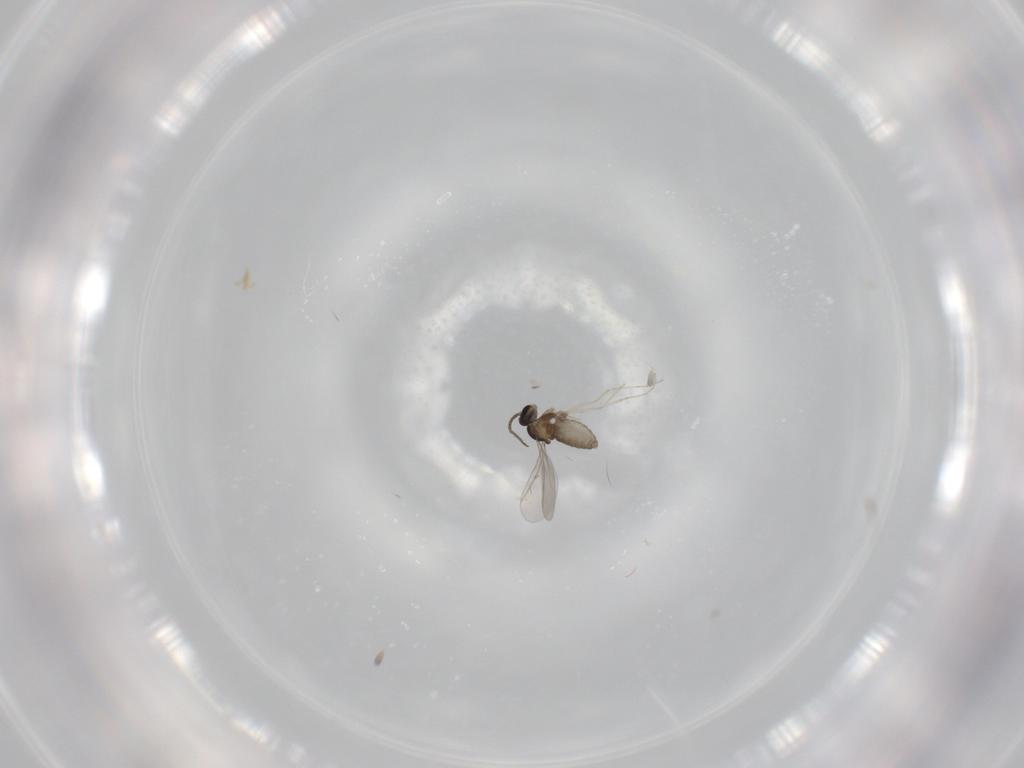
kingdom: Animalia
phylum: Arthropoda
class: Insecta
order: Diptera
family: Cecidomyiidae
